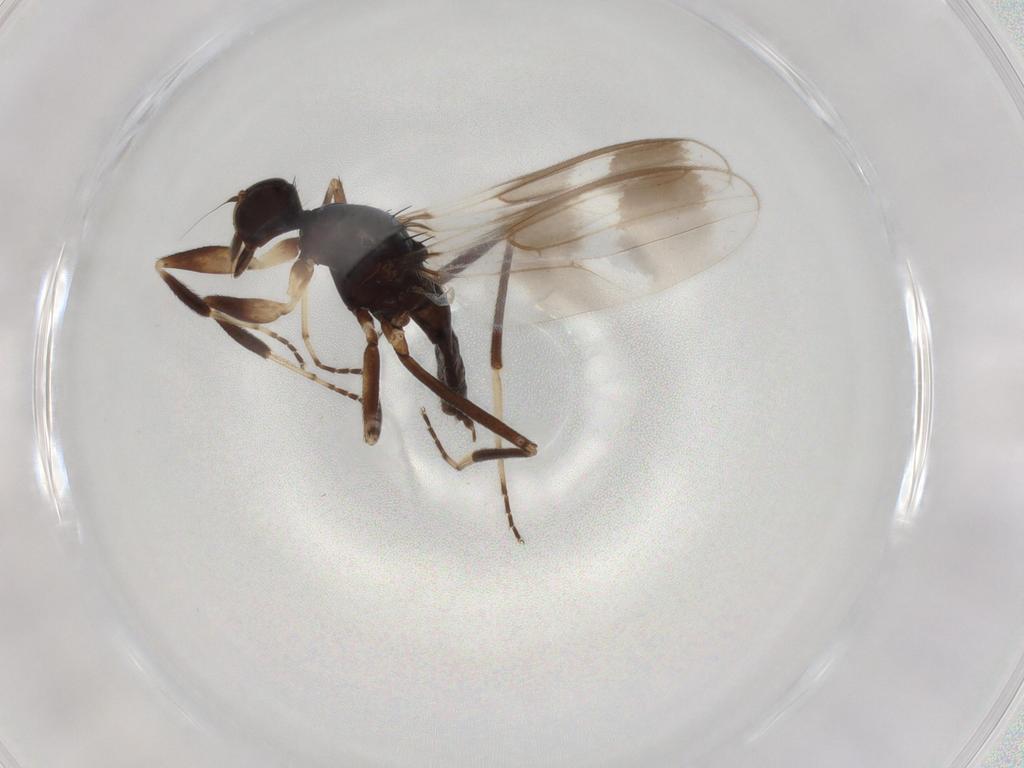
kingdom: Animalia
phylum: Arthropoda
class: Insecta
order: Diptera
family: Hybotidae
